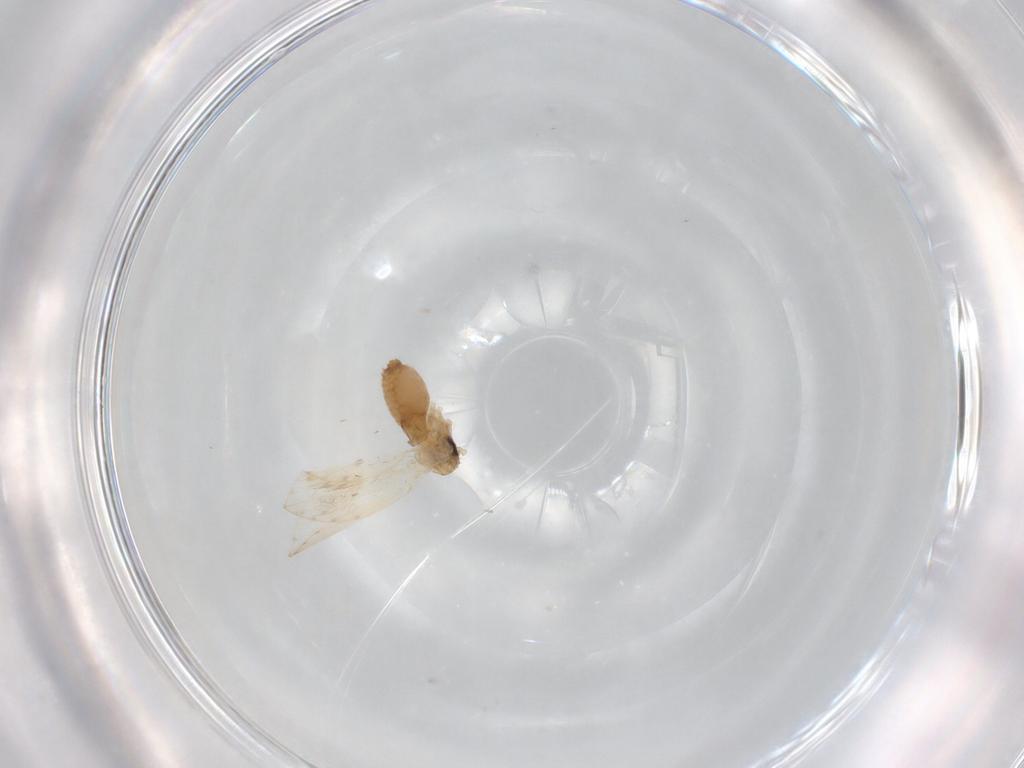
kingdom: Animalia
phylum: Arthropoda
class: Insecta
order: Diptera
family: Psychodidae
